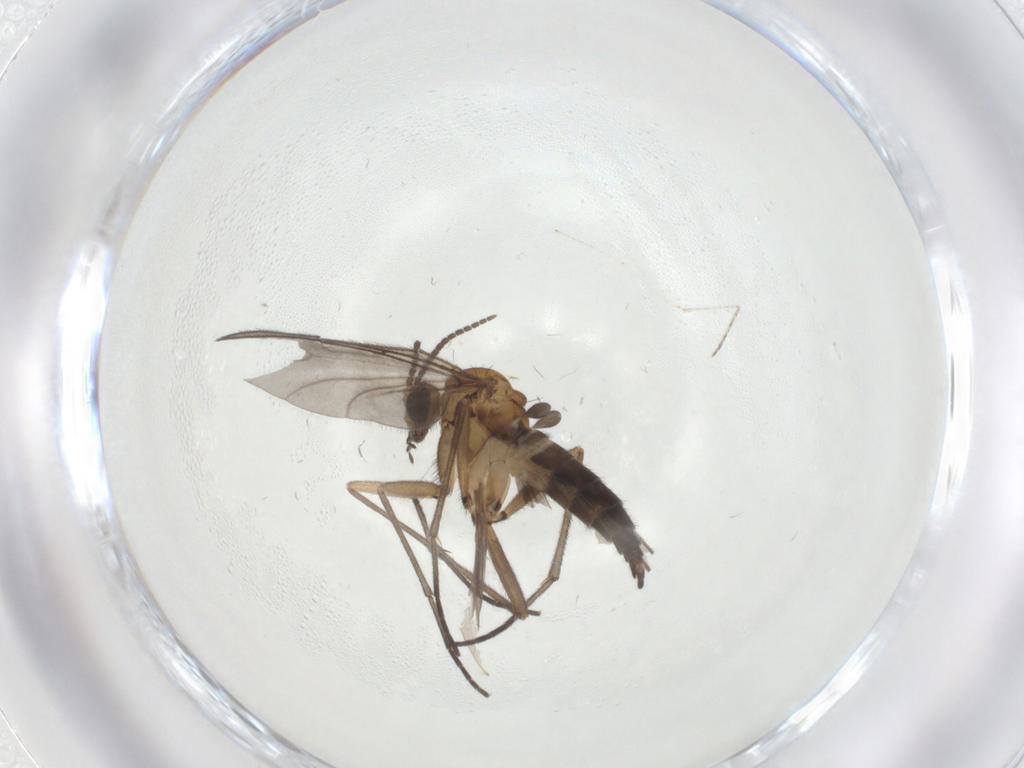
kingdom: Animalia
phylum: Arthropoda
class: Insecta
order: Diptera
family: Sciaridae
